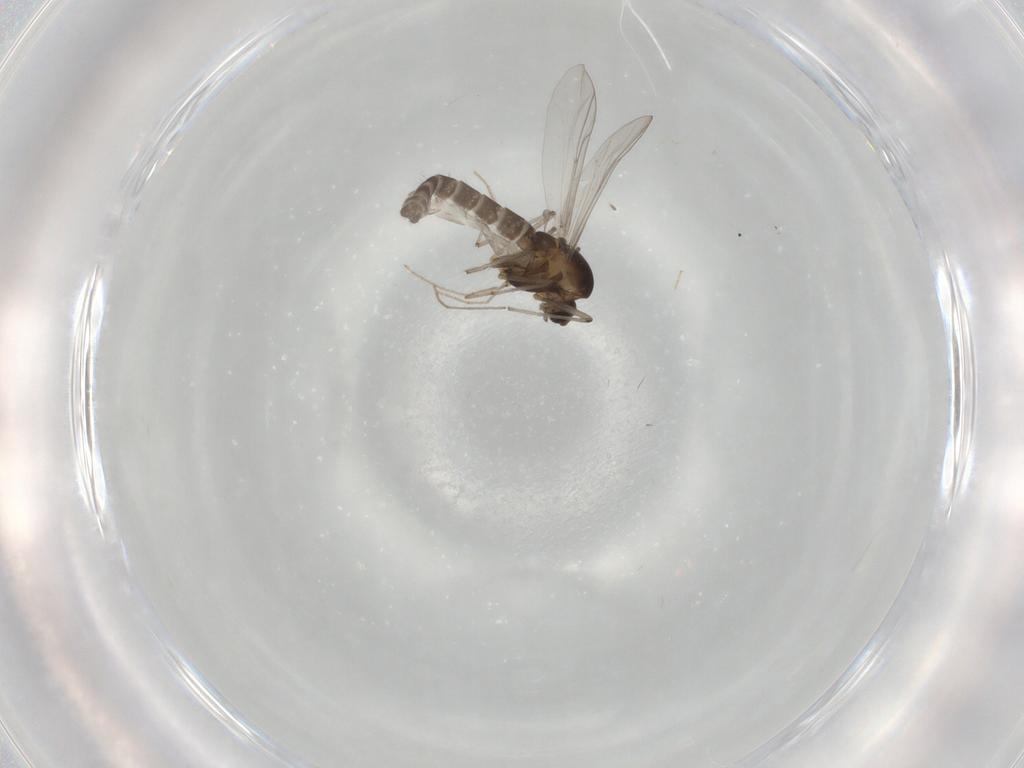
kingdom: Animalia
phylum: Arthropoda
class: Insecta
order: Diptera
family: Chironomidae
